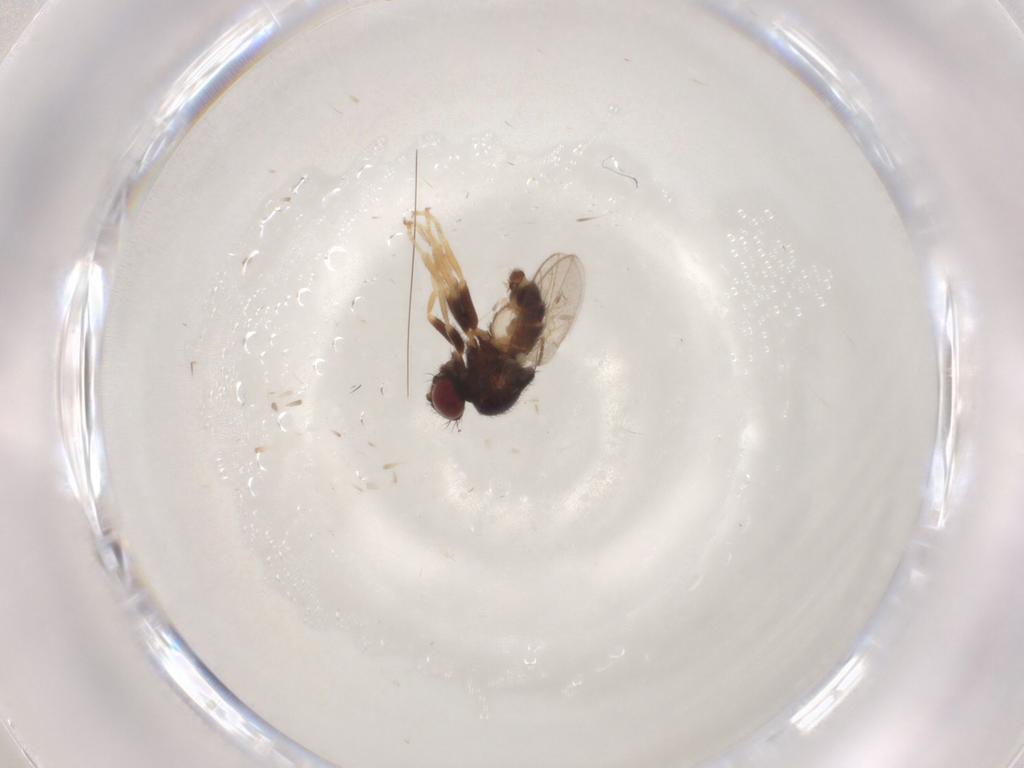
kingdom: Animalia
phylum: Arthropoda
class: Insecta
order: Diptera
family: Chloropidae
